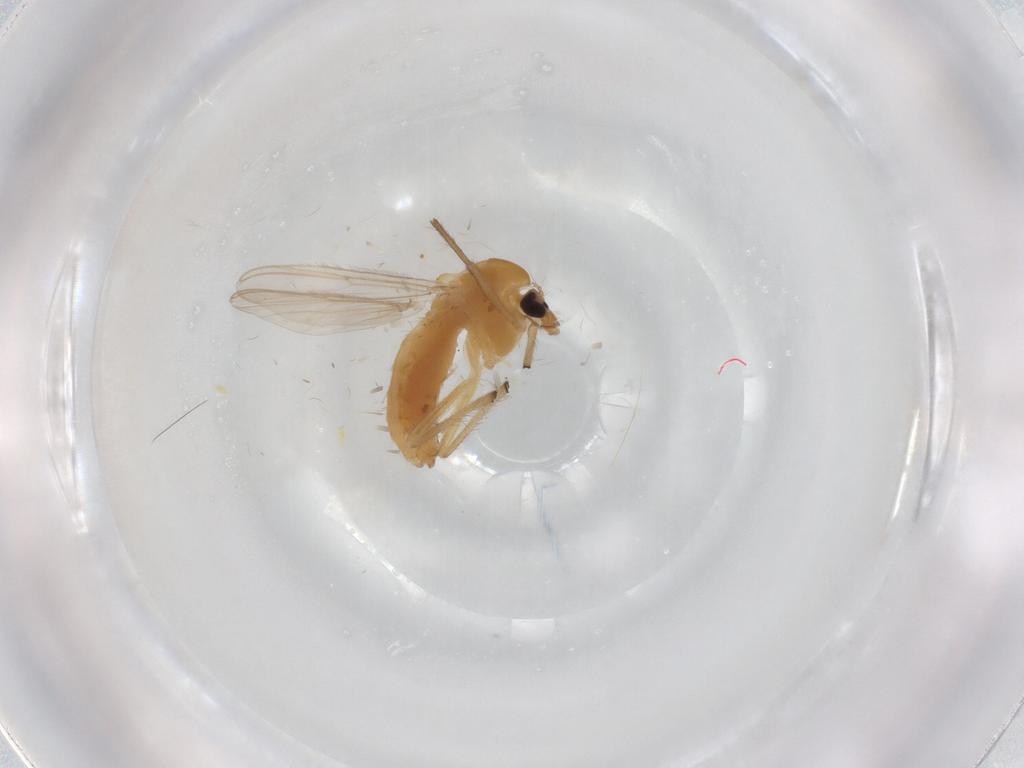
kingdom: Animalia
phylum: Arthropoda
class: Insecta
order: Diptera
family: Chironomidae
